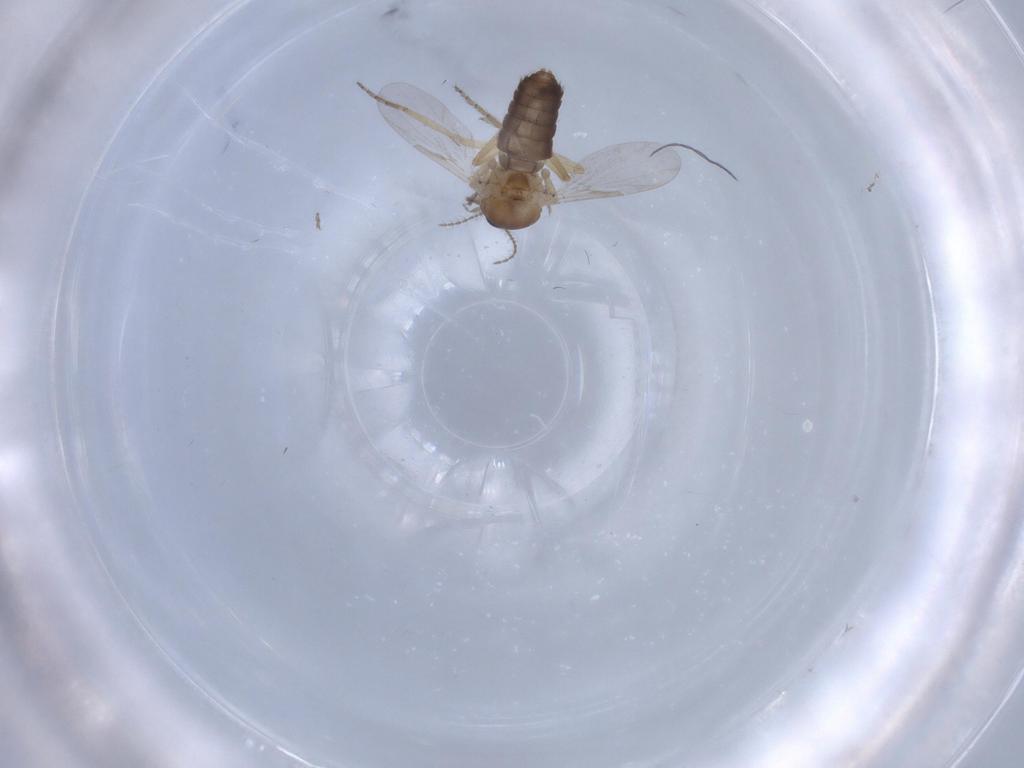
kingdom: Animalia
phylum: Arthropoda
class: Insecta
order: Diptera
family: Ceratopogonidae
